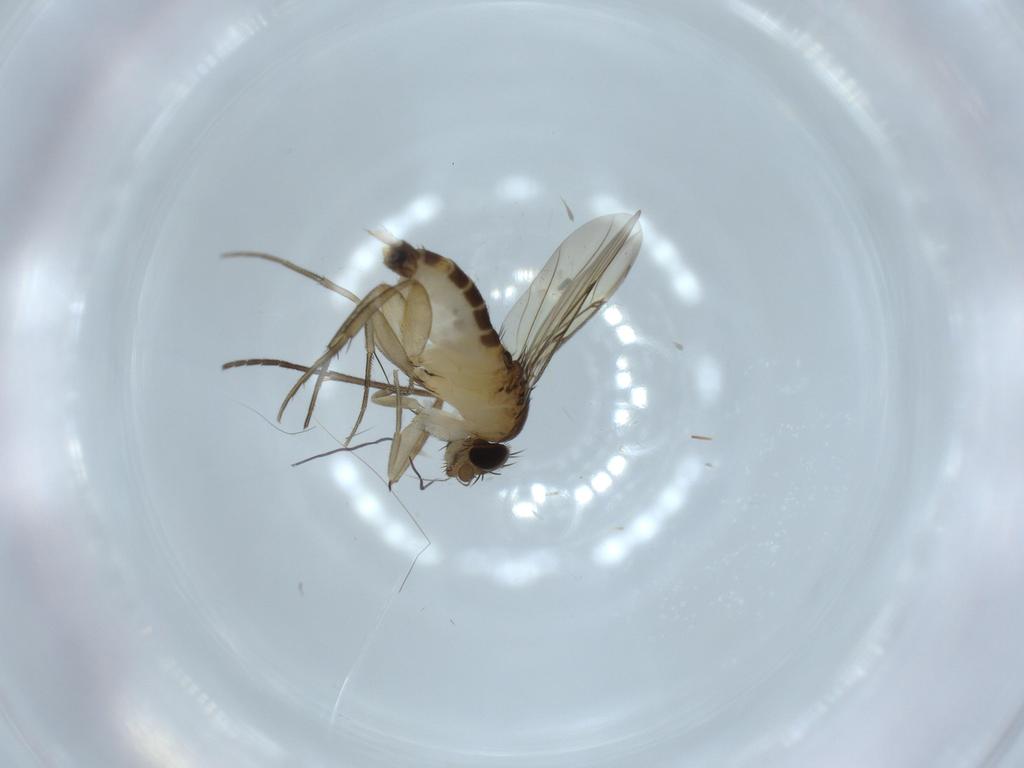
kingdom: Animalia
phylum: Arthropoda
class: Insecta
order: Diptera
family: Sciaridae
